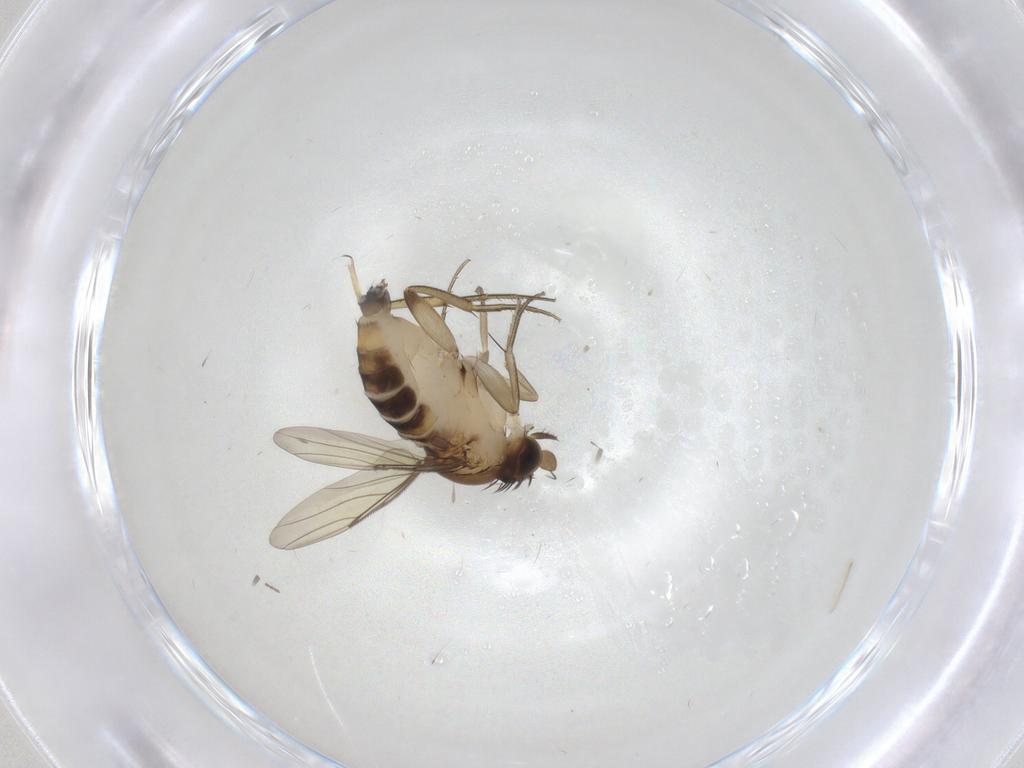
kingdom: Animalia
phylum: Arthropoda
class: Insecta
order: Diptera
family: Phoridae
